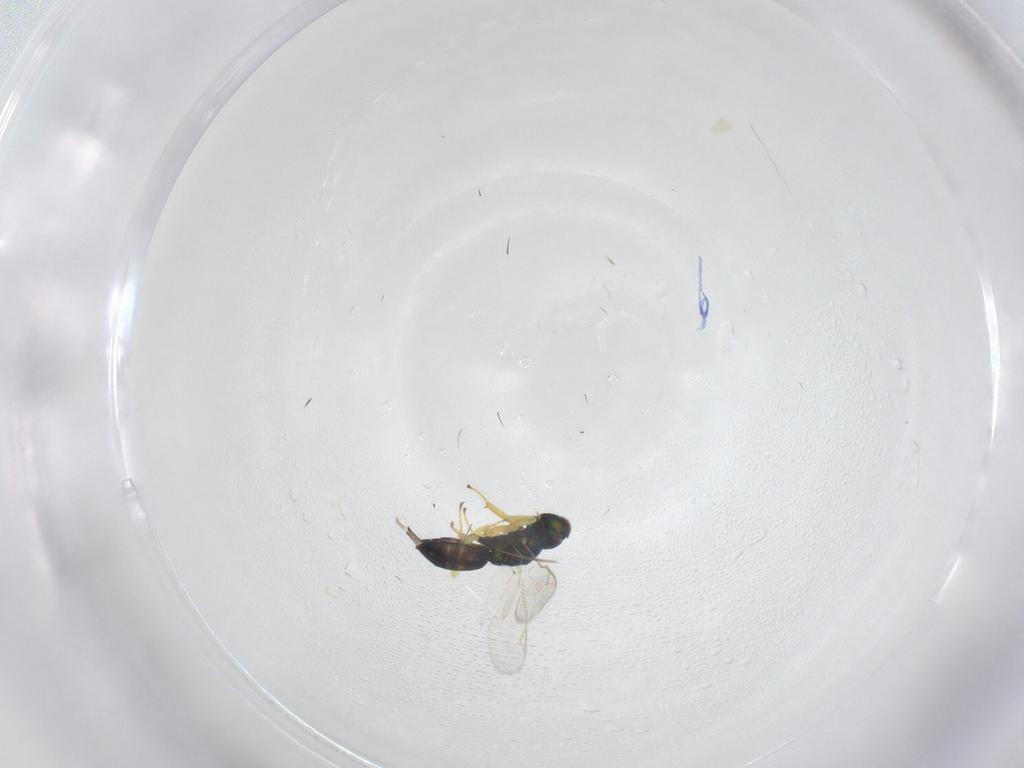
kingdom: Animalia
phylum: Arthropoda
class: Insecta
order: Hymenoptera
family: Pteromalidae
